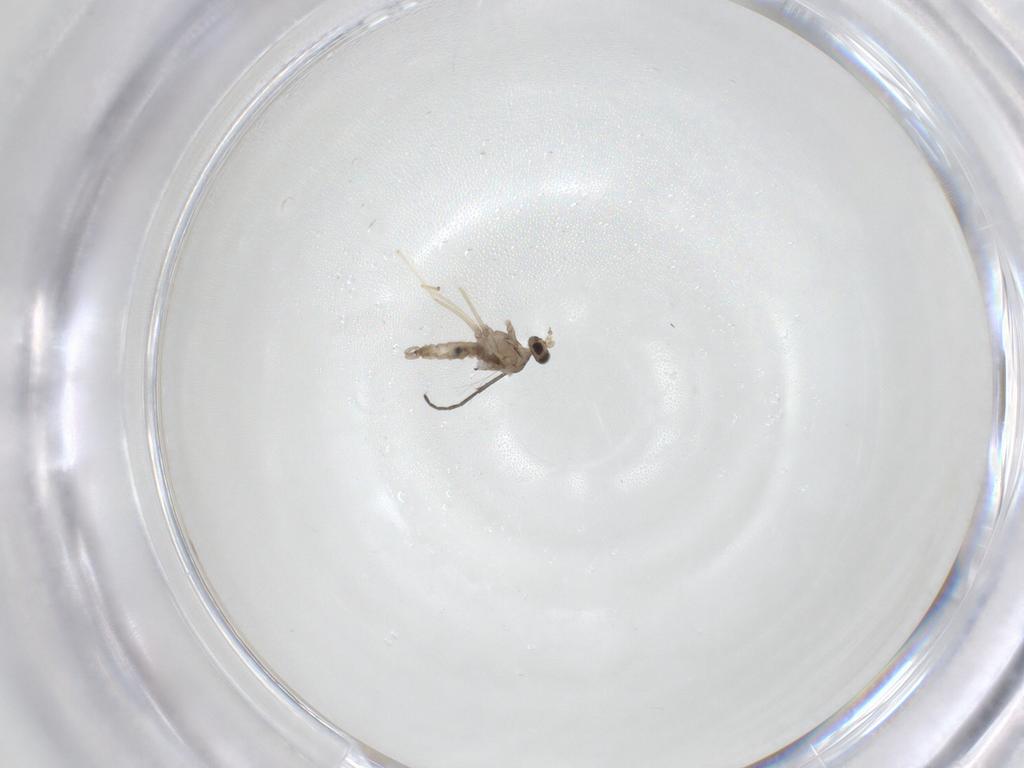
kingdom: Animalia
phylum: Arthropoda
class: Insecta
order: Diptera
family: Sciaridae
